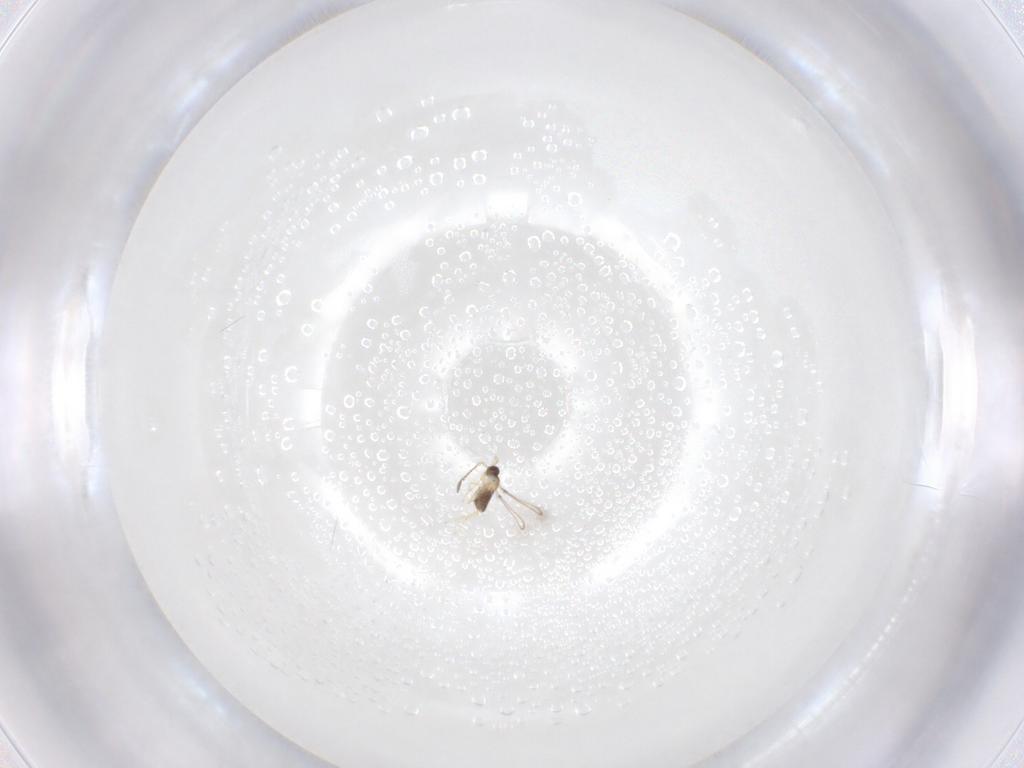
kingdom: Animalia
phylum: Arthropoda
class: Insecta
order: Hymenoptera
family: Mymaridae
